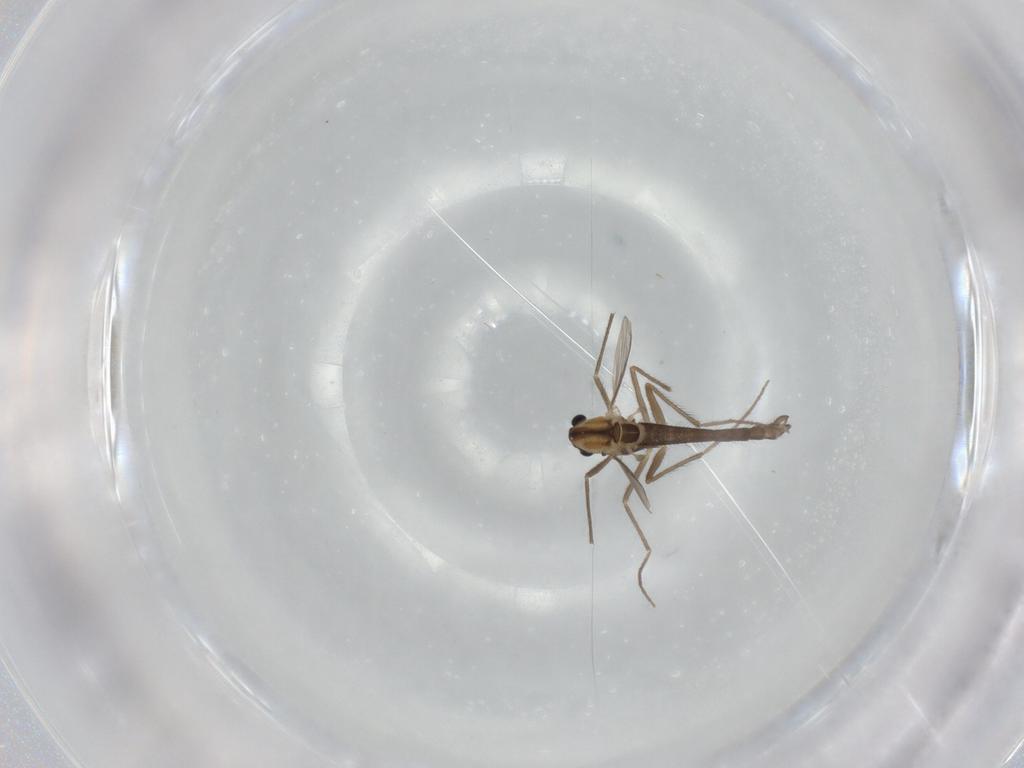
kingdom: Animalia
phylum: Arthropoda
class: Insecta
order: Diptera
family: Chironomidae
